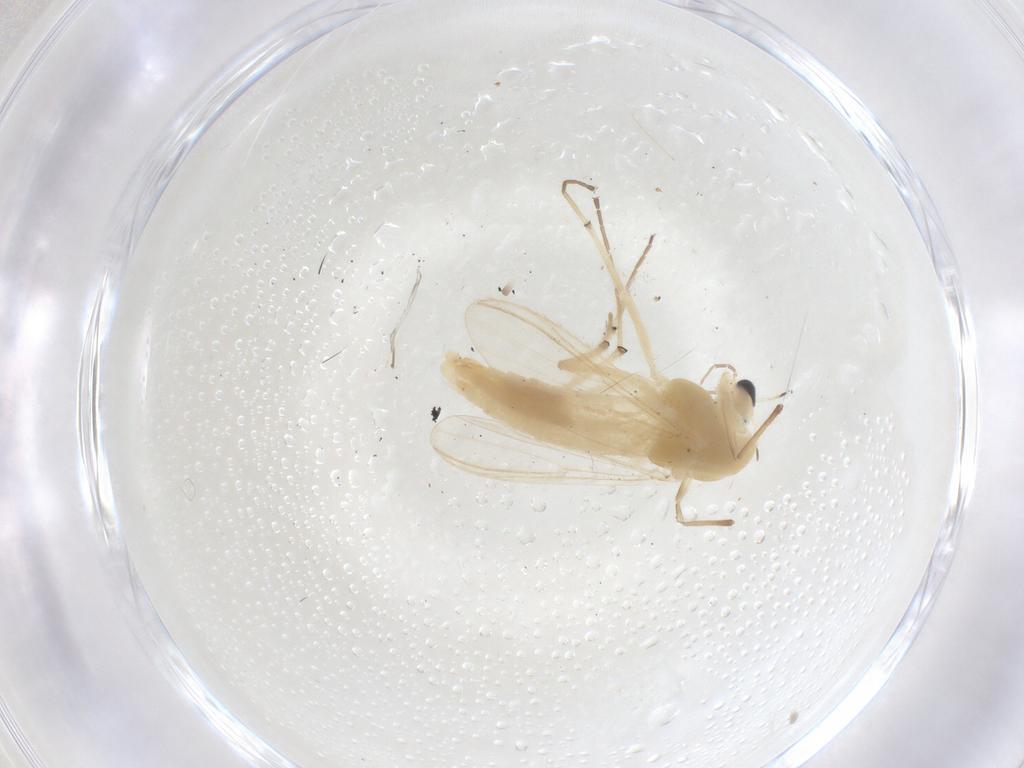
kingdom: Animalia
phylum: Arthropoda
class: Insecta
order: Diptera
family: Chironomidae
